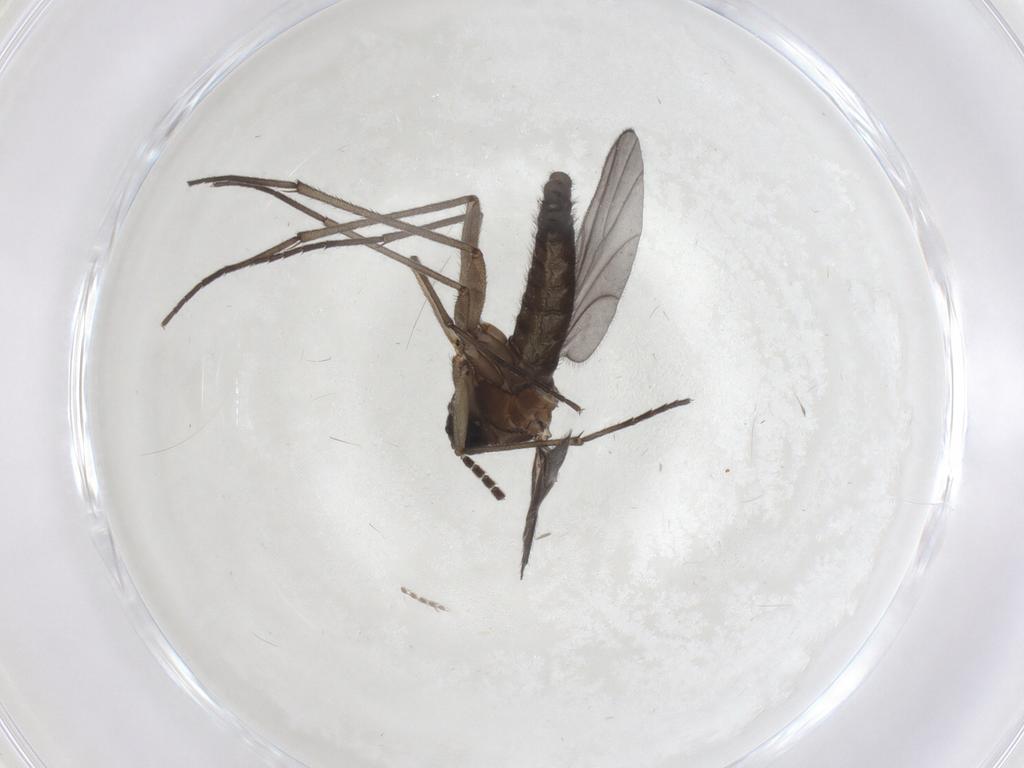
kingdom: Animalia
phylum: Arthropoda
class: Insecta
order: Diptera
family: Sciaridae
